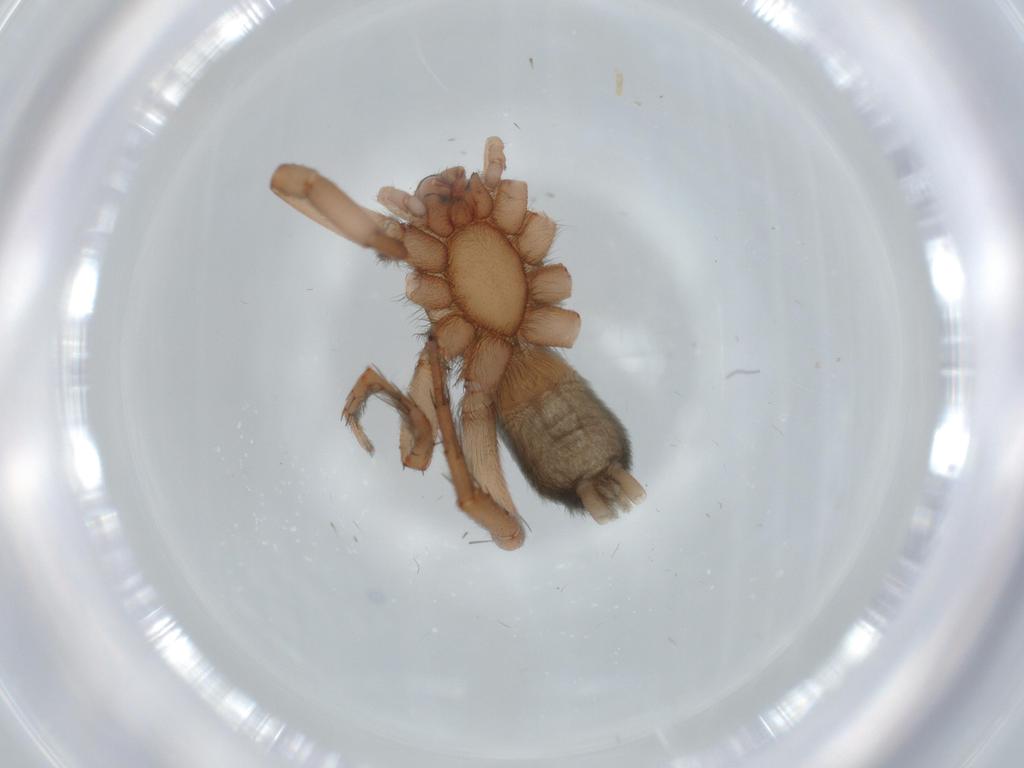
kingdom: Animalia
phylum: Arthropoda
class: Arachnida
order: Araneae
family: Gnaphosidae
